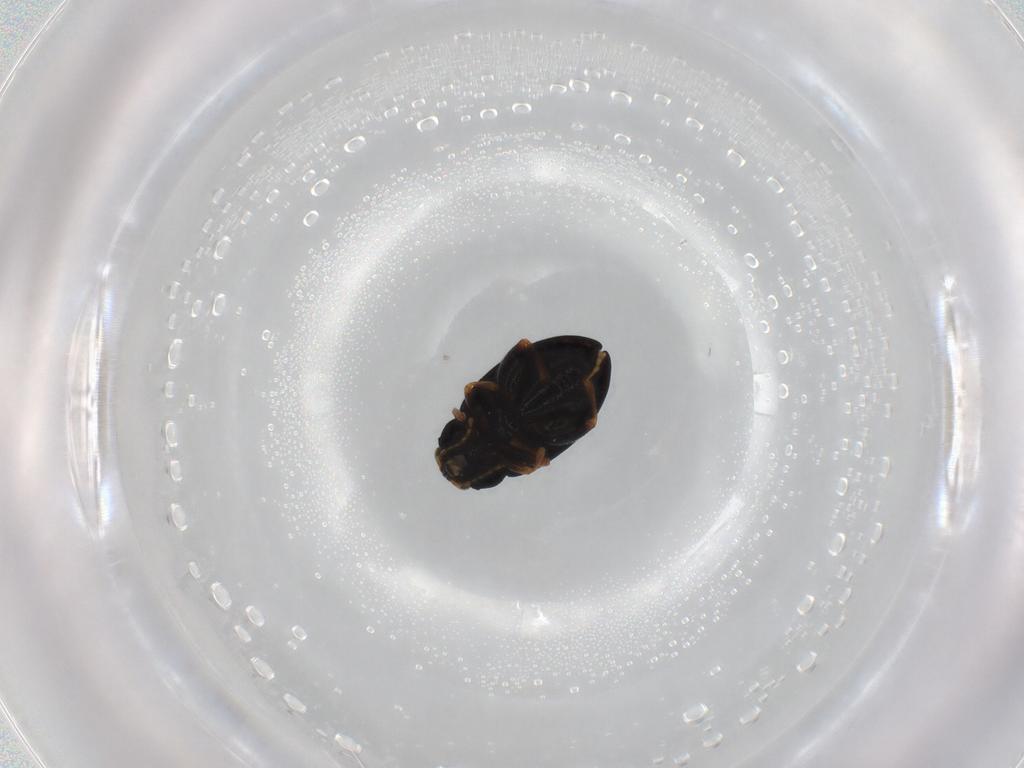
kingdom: Animalia
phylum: Arthropoda
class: Insecta
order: Coleoptera
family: Chrysomelidae
